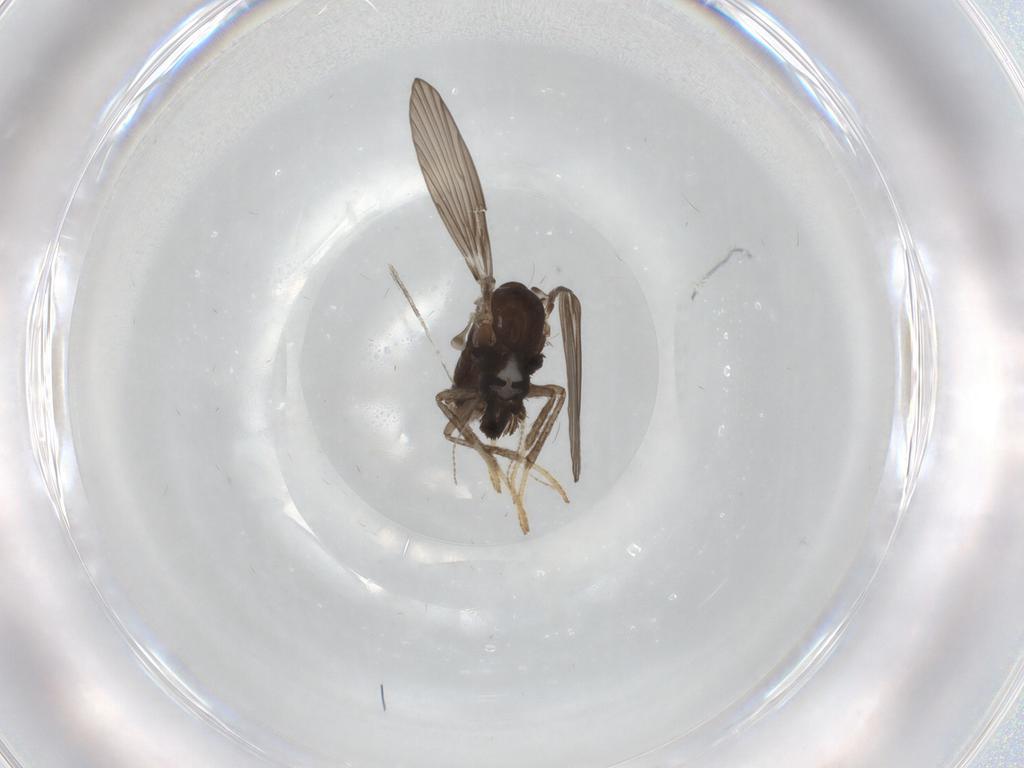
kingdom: Animalia
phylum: Arthropoda
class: Insecta
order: Diptera
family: Psychodidae
